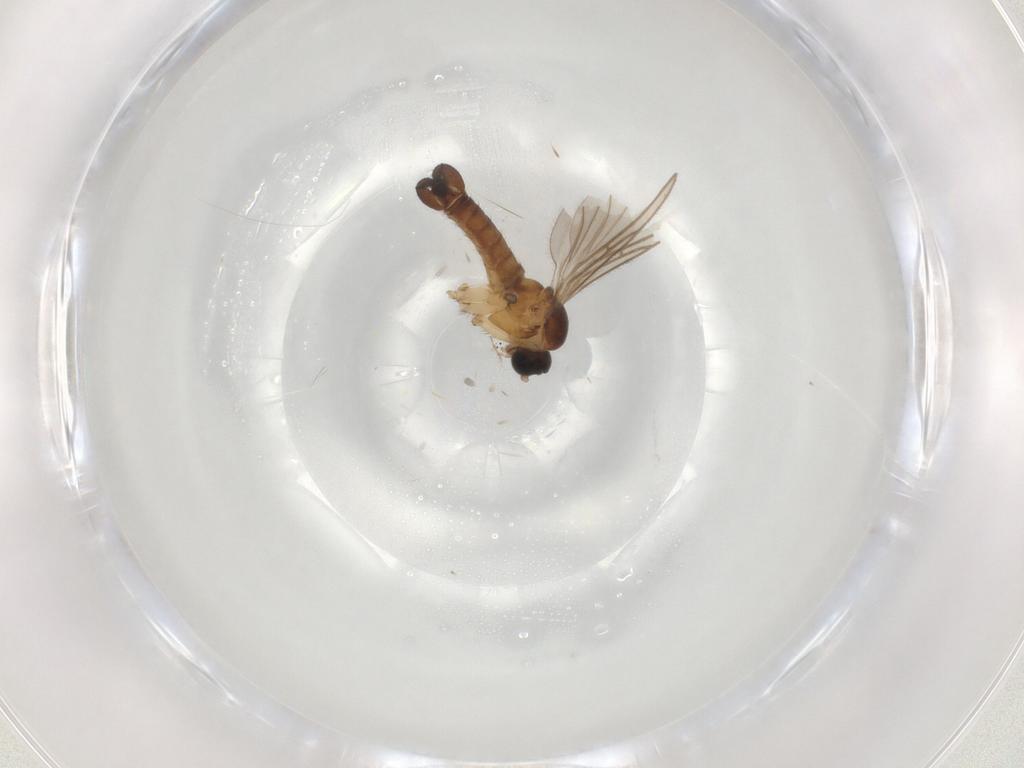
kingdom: Animalia
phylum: Arthropoda
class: Insecta
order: Diptera
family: Sciaridae
